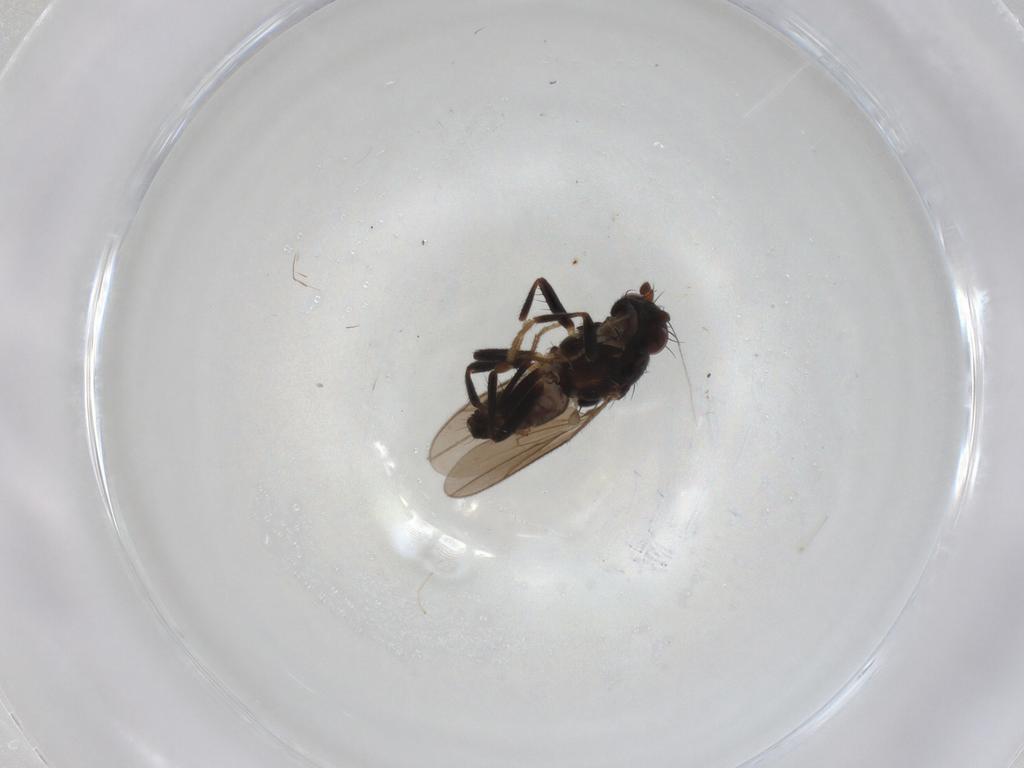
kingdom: Animalia
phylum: Arthropoda
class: Insecta
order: Diptera
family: Sphaeroceridae
